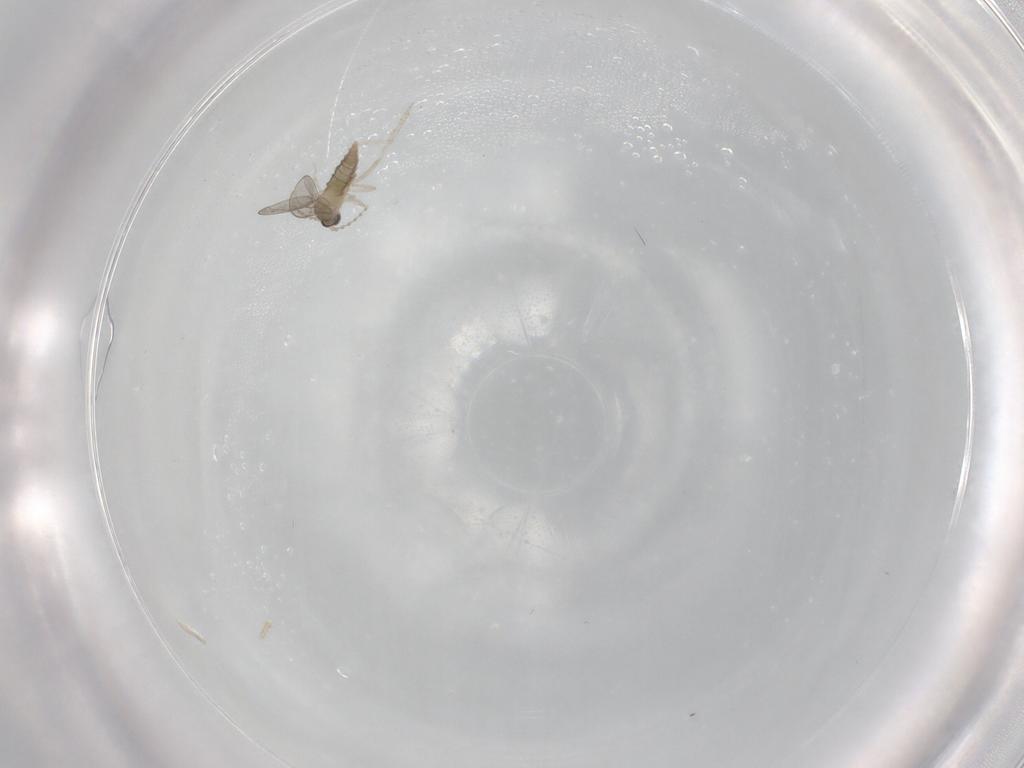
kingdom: Animalia
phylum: Arthropoda
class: Insecta
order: Diptera
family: Cecidomyiidae
